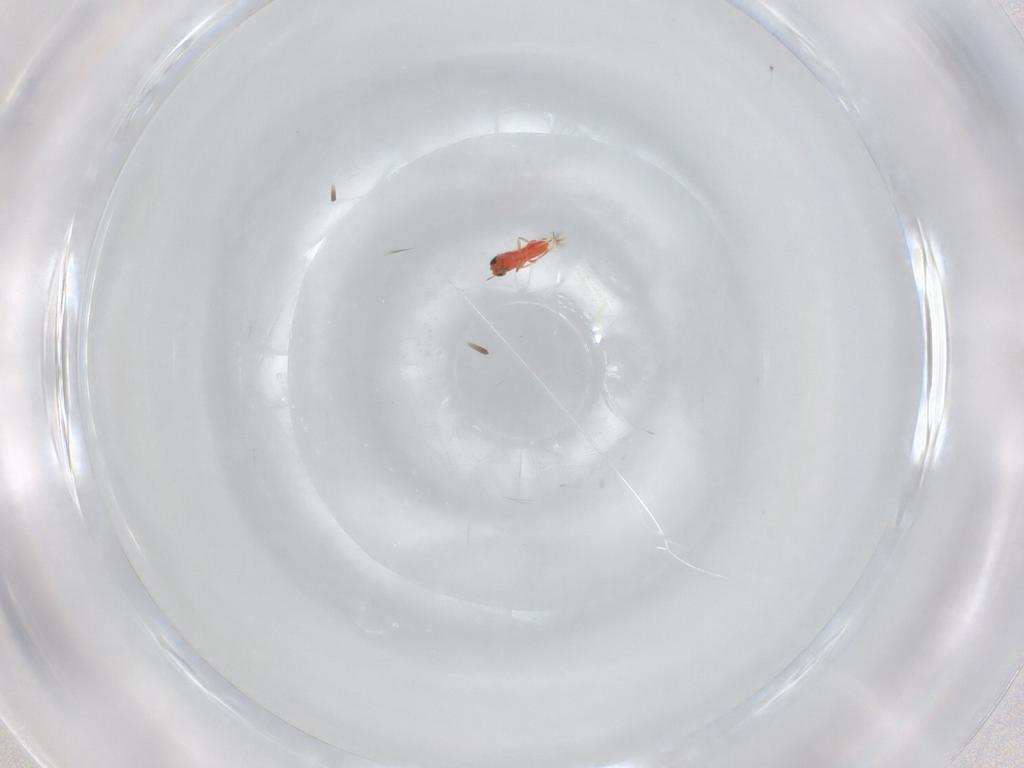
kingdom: Animalia
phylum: Arthropoda
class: Insecta
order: Hymenoptera
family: Trichogrammatidae
